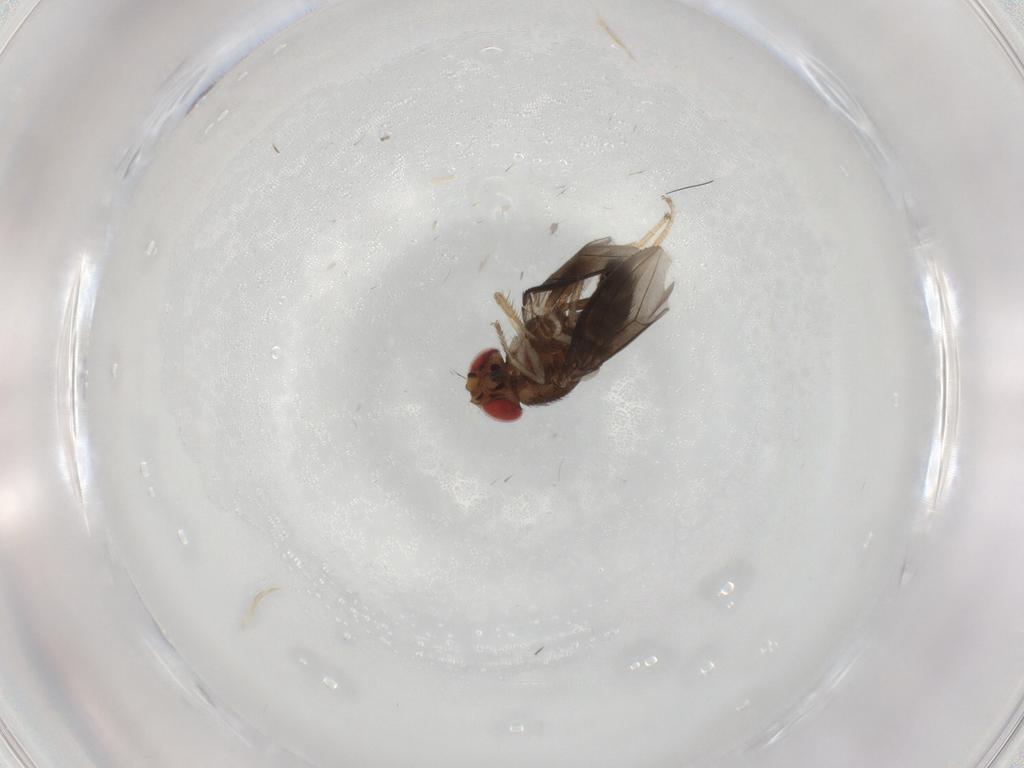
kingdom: Animalia
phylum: Arthropoda
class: Insecta
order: Diptera
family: Drosophilidae
